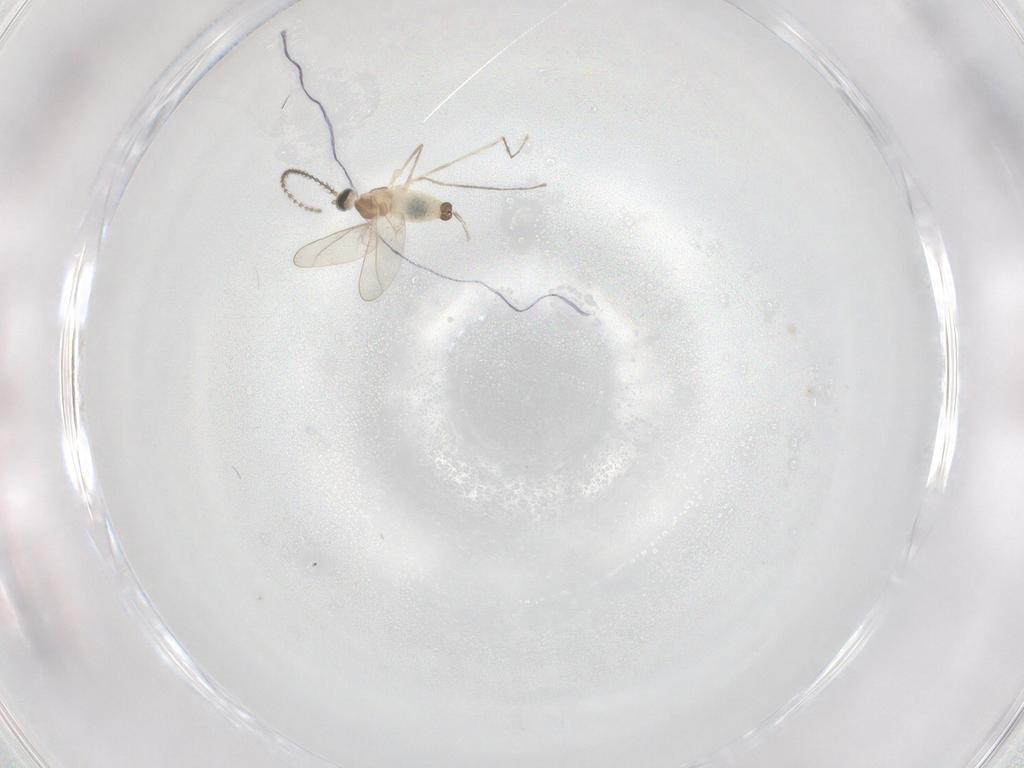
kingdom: Animalia
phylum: Arthropoda
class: Insecta
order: Diptera
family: Cecidomyiidae
